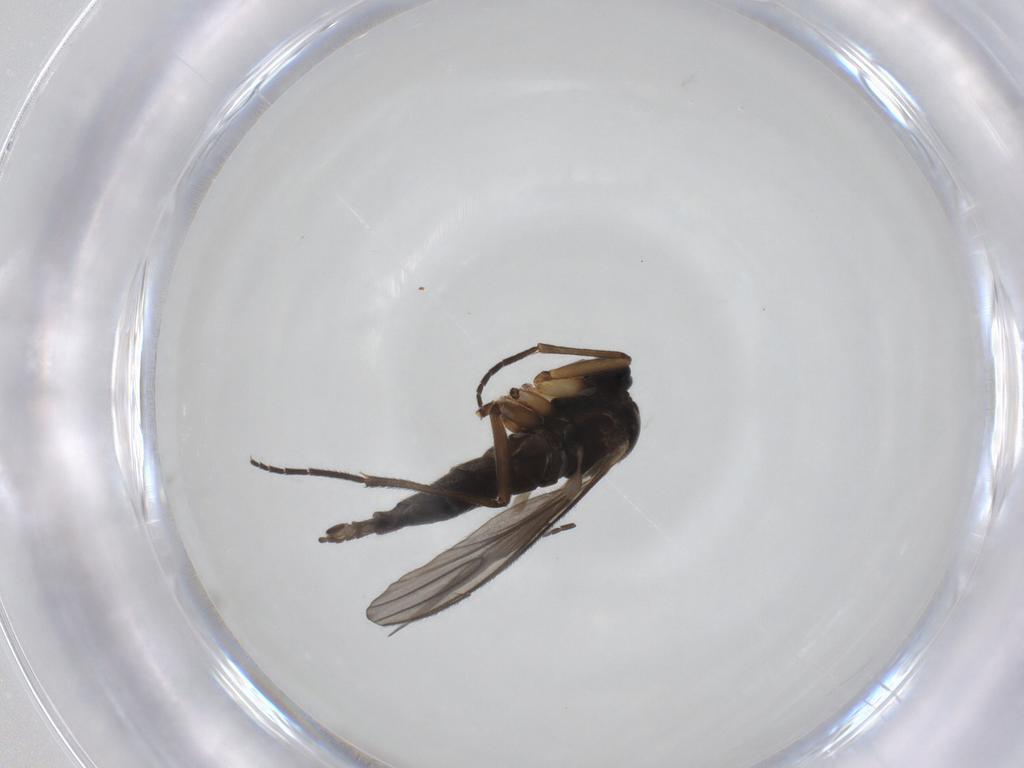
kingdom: Animalia
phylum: Arthropoda
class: Insecta
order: Diptera
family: Sciaridae
